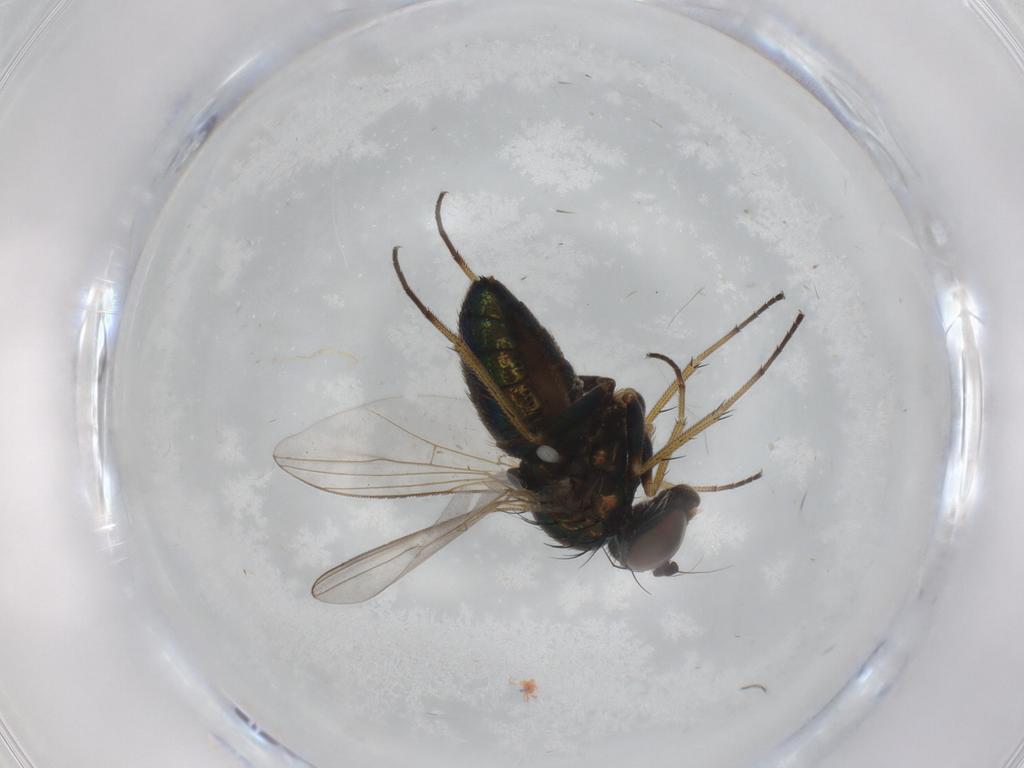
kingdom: Animalia
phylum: Arthropoda
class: Insecta
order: Diptera
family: Ceratopogonidae
